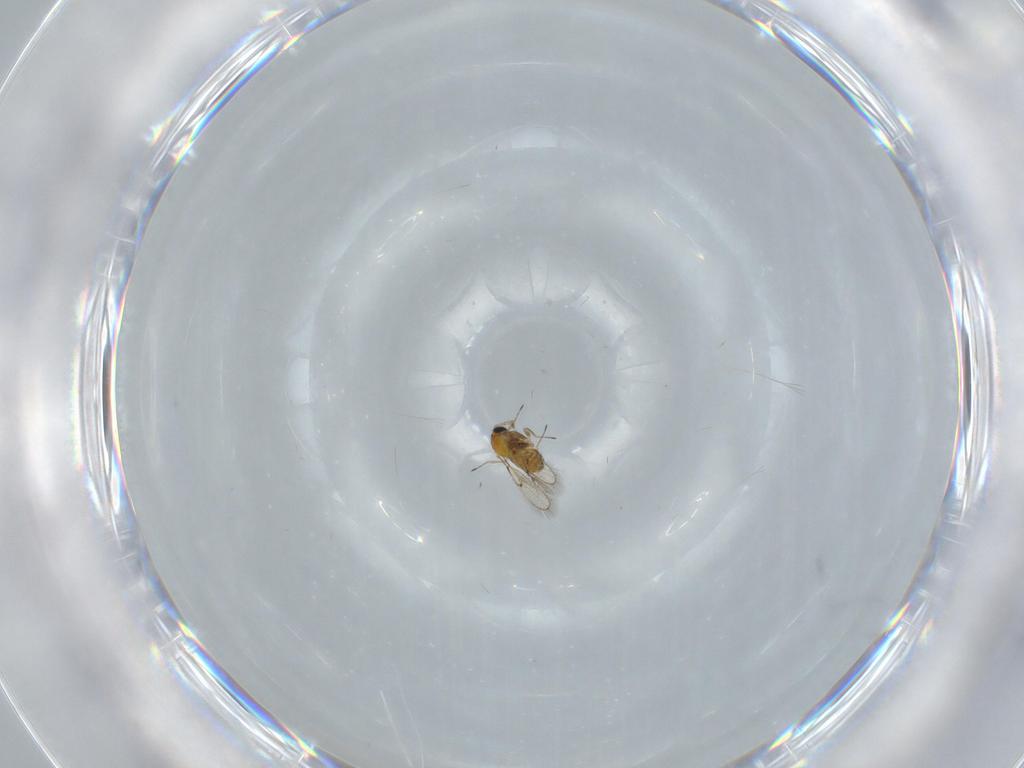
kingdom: Animalia
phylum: Arthropoda
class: Insecta
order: Hymenoptera
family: Trichogrammatidae
